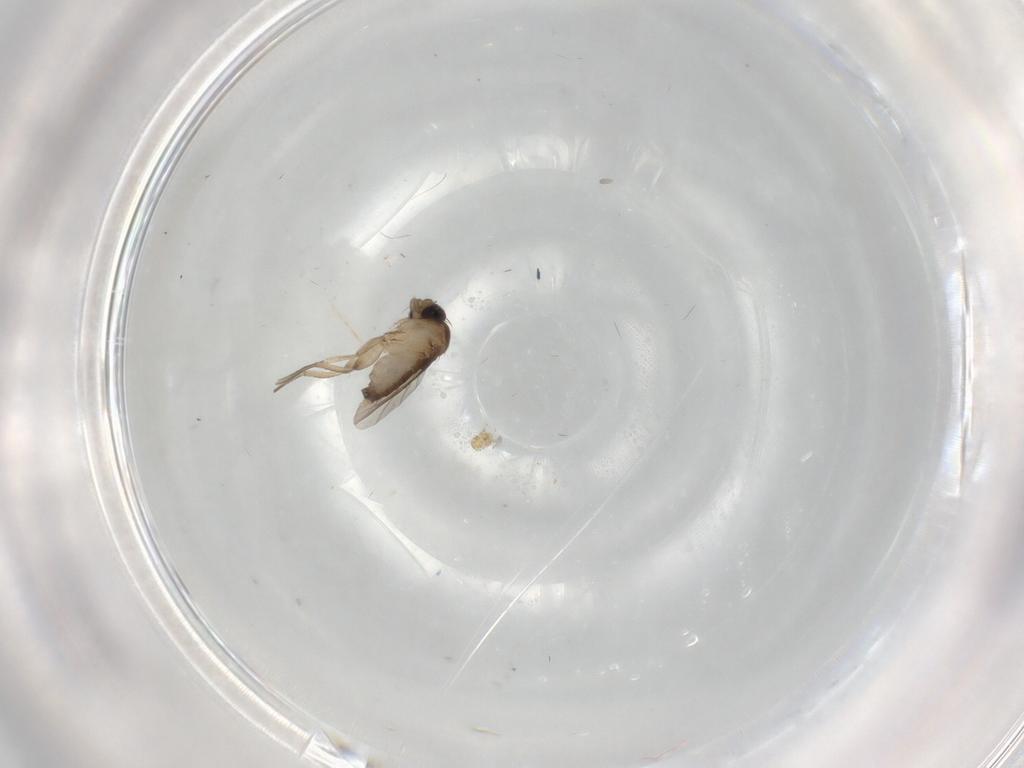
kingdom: Animalia
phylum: Arthropoda
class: Insecta
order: Diptera
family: Phoridae
